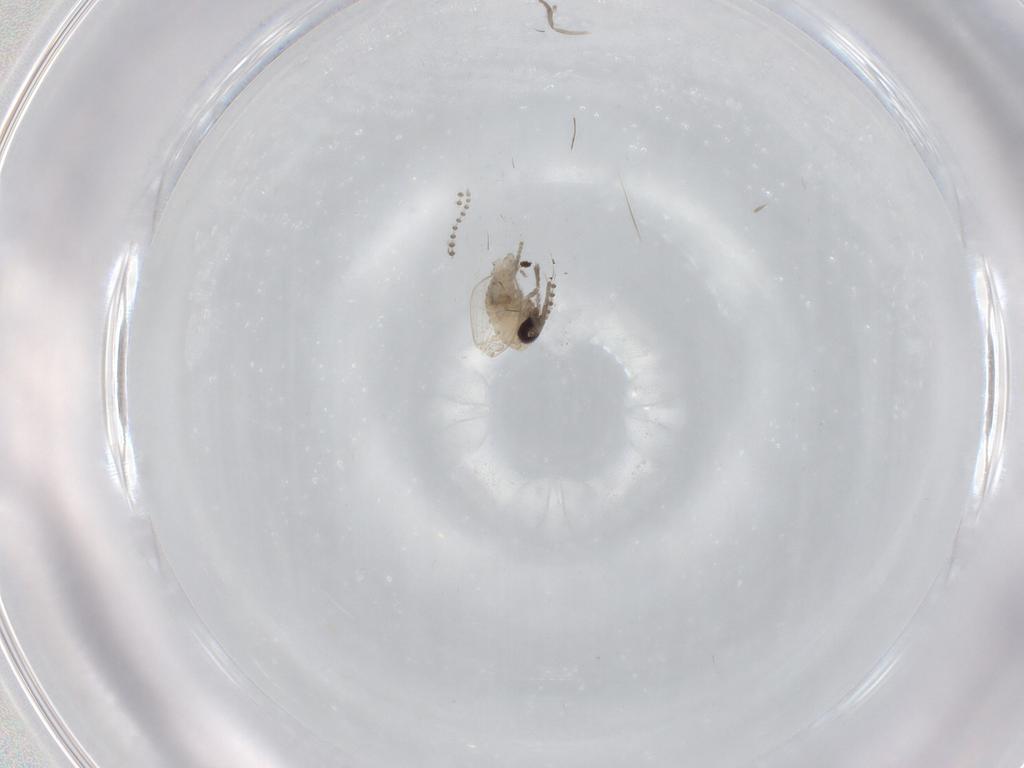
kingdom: Animalia
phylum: Arthropoda
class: Insecta
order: Diptera
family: Psychodidae
